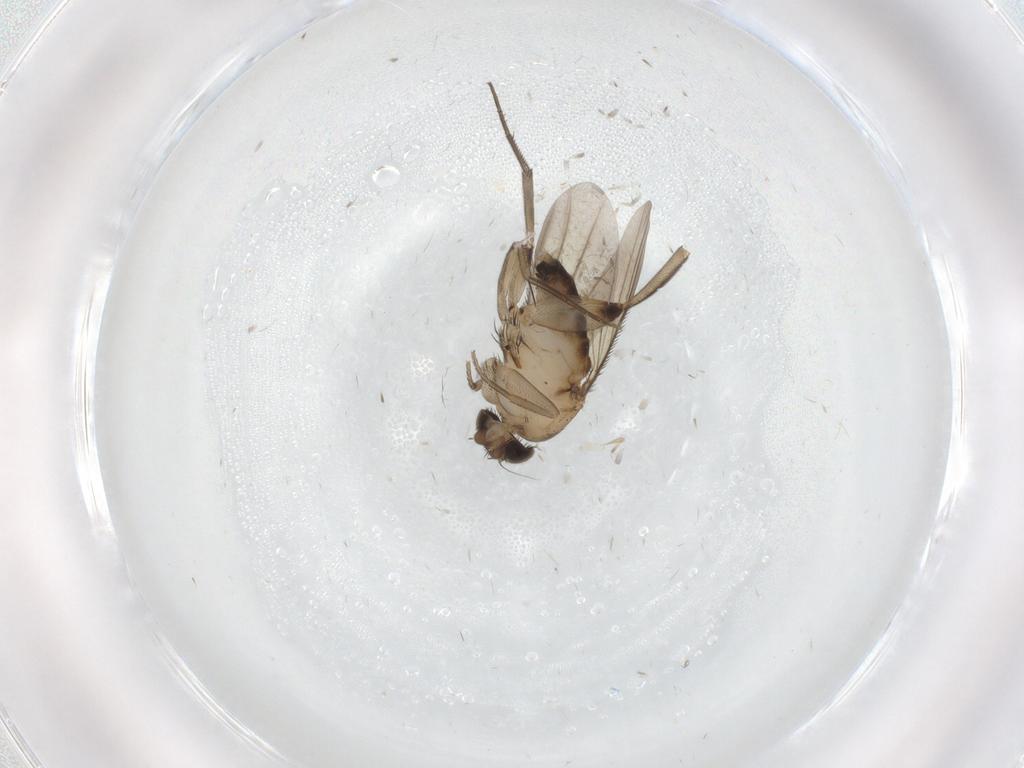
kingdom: Animalia
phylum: Arthropoda
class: Insecta
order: Diptera
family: Phoridae
